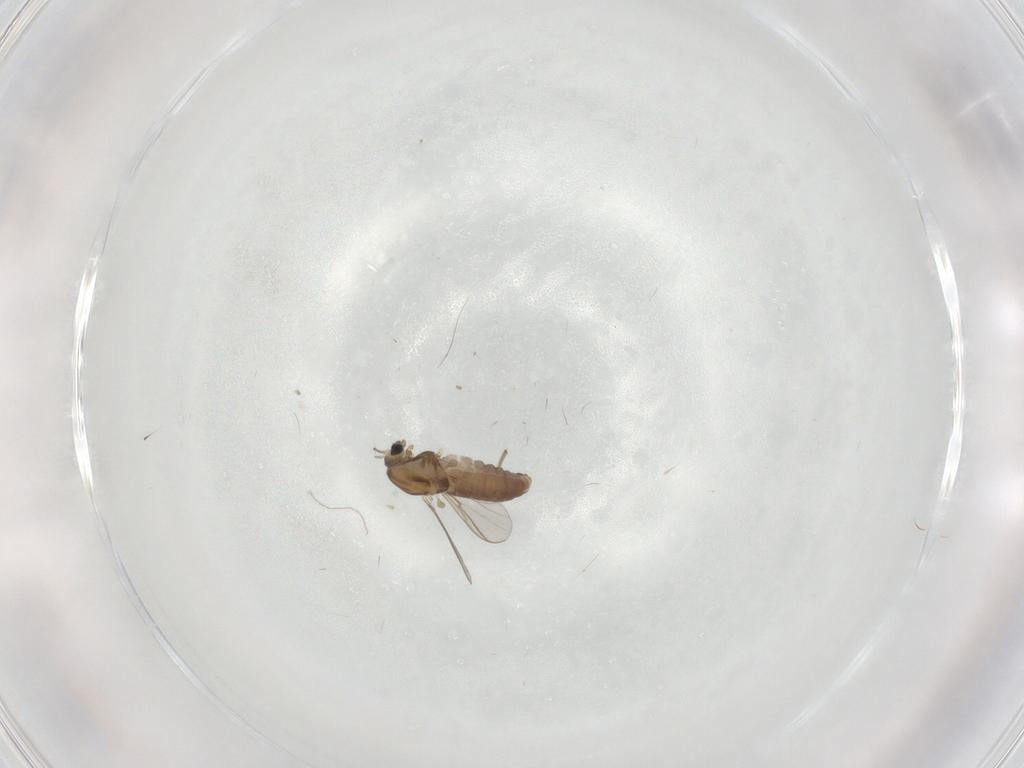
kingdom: Animalia
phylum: Arthropoda
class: Insecta
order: Diptera
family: Chironomidae
